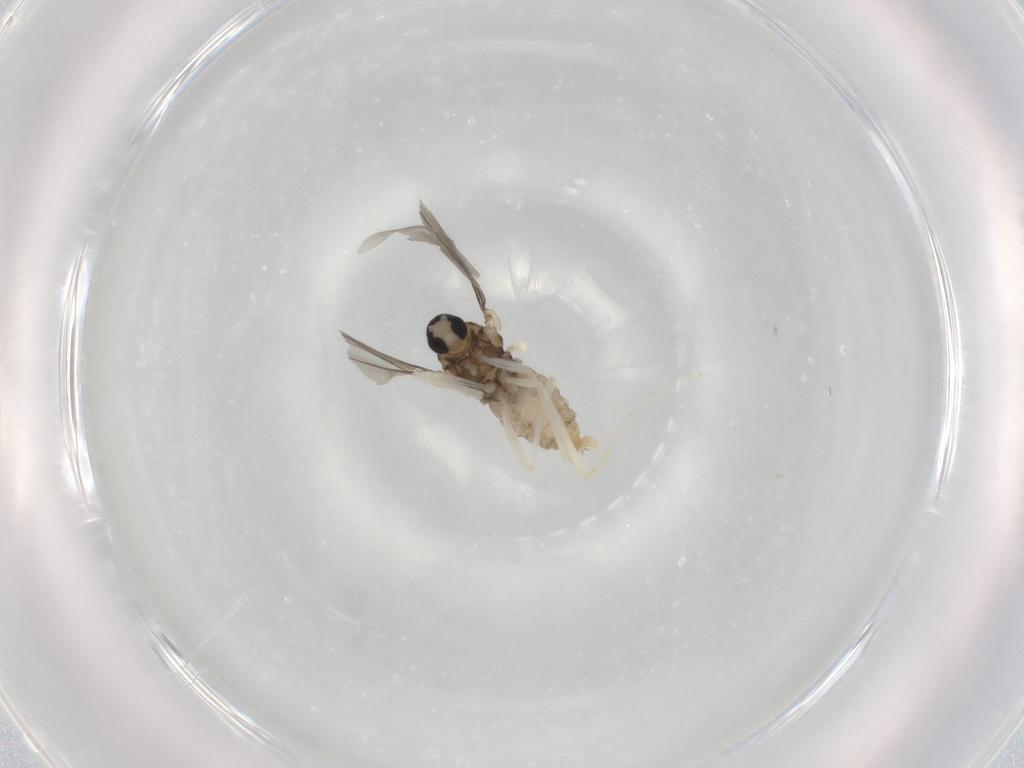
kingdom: Animalia
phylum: Arthropoda
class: Insecta
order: Diptera
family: Cecidomyiidae
